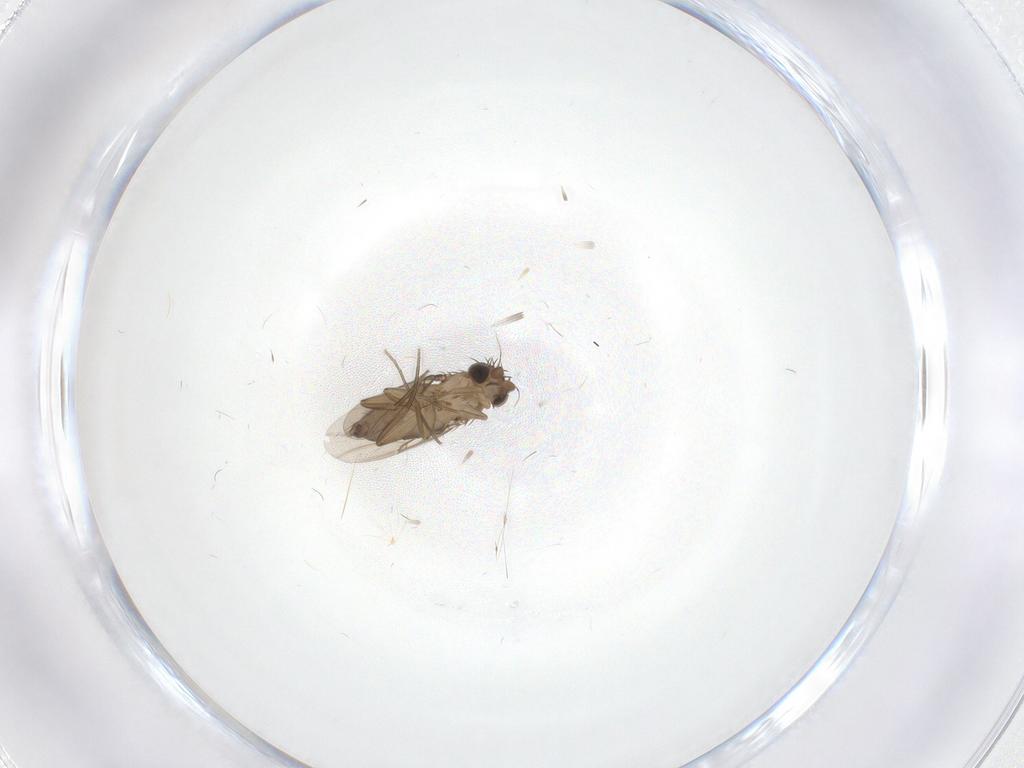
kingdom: Animalia
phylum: Arthropoda
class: Insecta
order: Diptera
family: Phoridae
